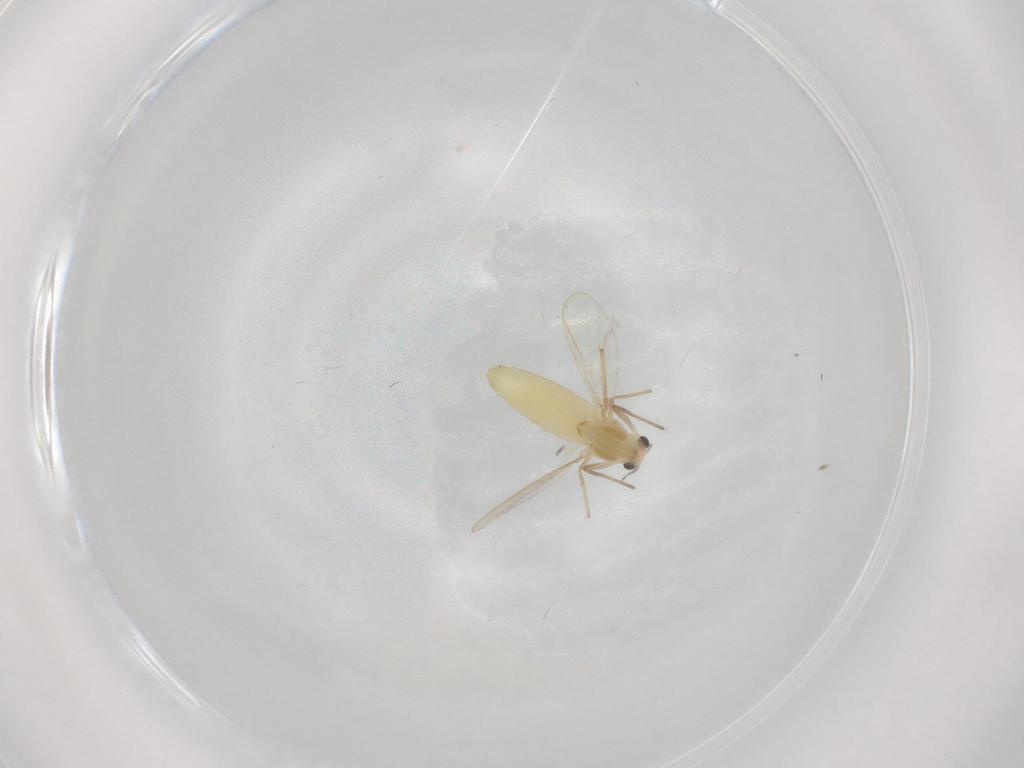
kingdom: Animalia
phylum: Arthropoda
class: Insecta
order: Diptera
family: Chironomidae
